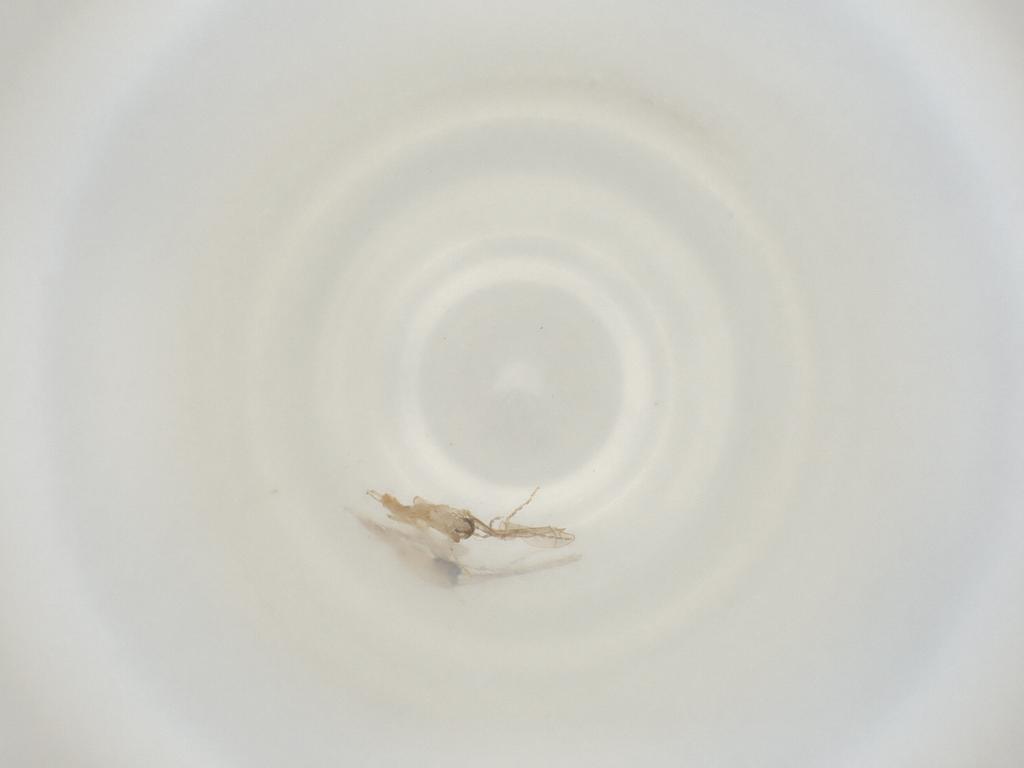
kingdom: Animalia
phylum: Arthropoda
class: Insecta
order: Diptera
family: Cecidomyiidae
